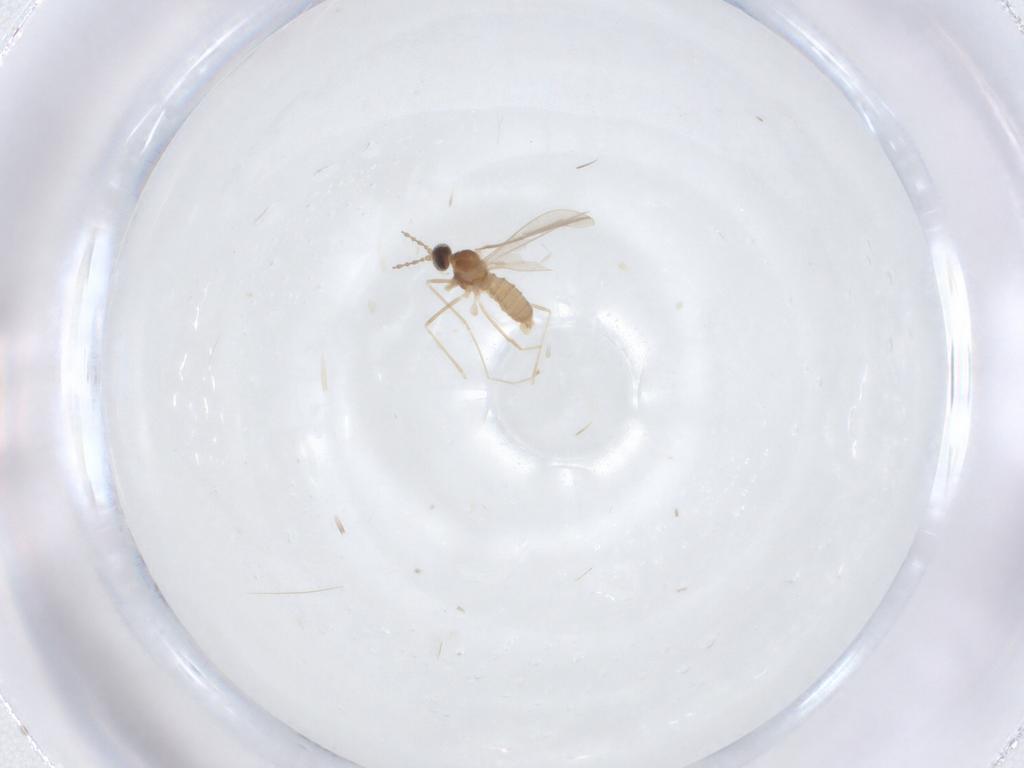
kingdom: Animalia
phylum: Arthropoda
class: Insecta
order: Diptera
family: Cecidomyiidae
